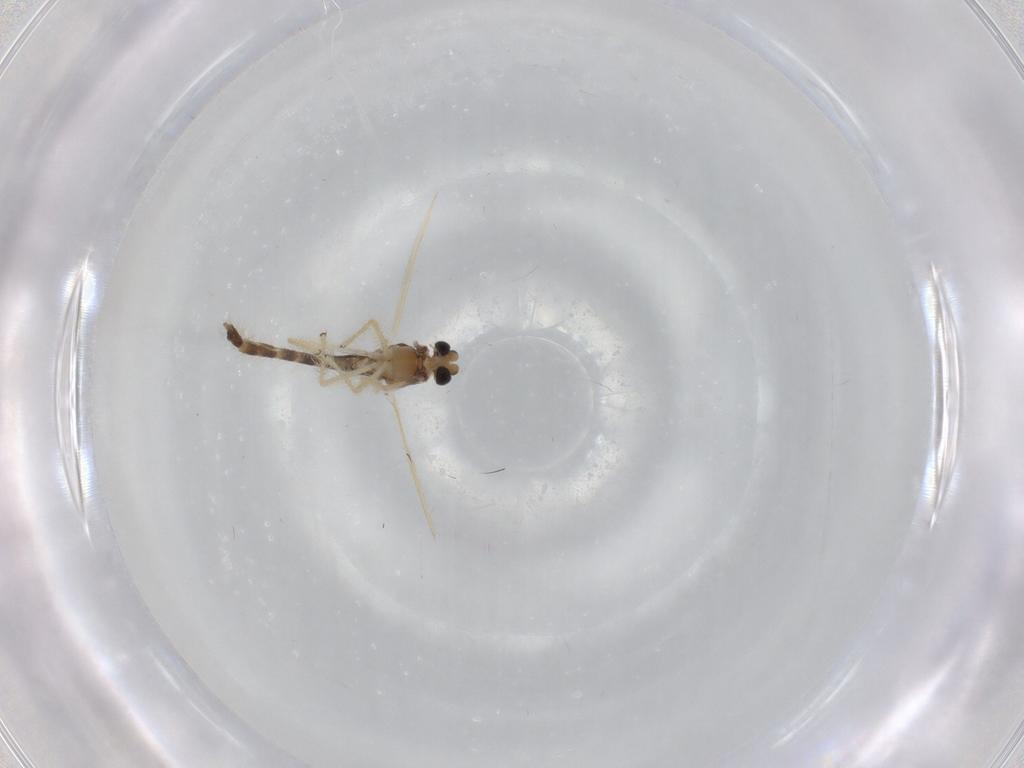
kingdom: Animalia
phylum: Arthropoda
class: Insecta
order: Diptera
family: Chironomidae
